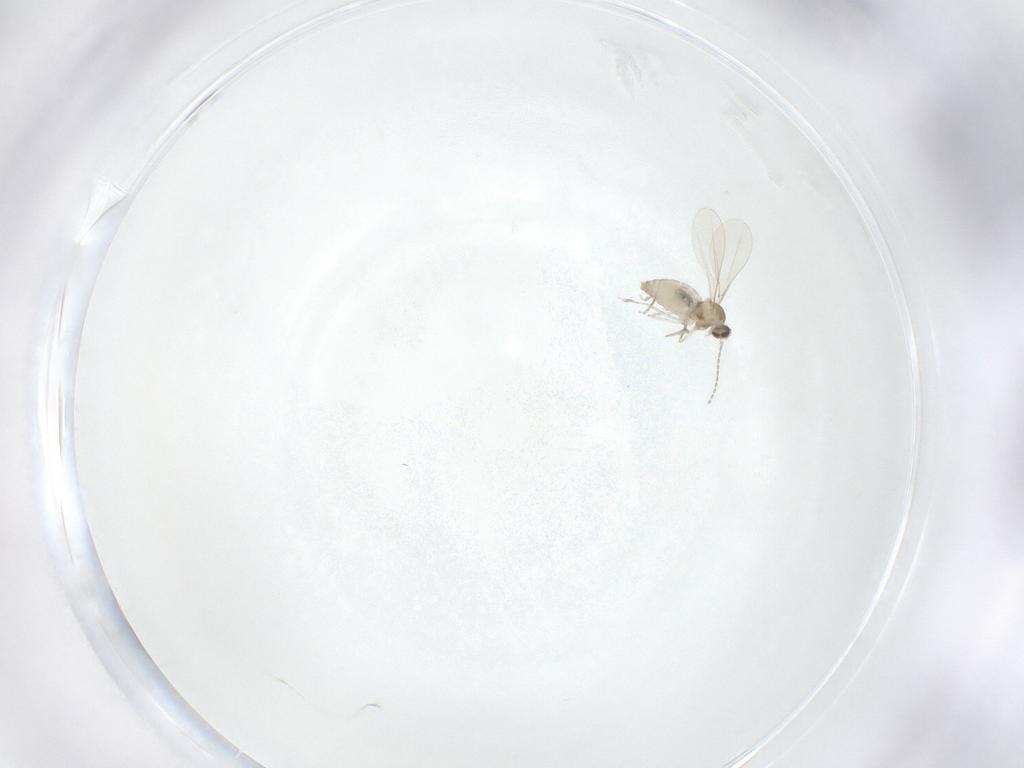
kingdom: Animalia
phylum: Arthropoda
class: Insecta
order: Diptera
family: Cecidomyiidae
